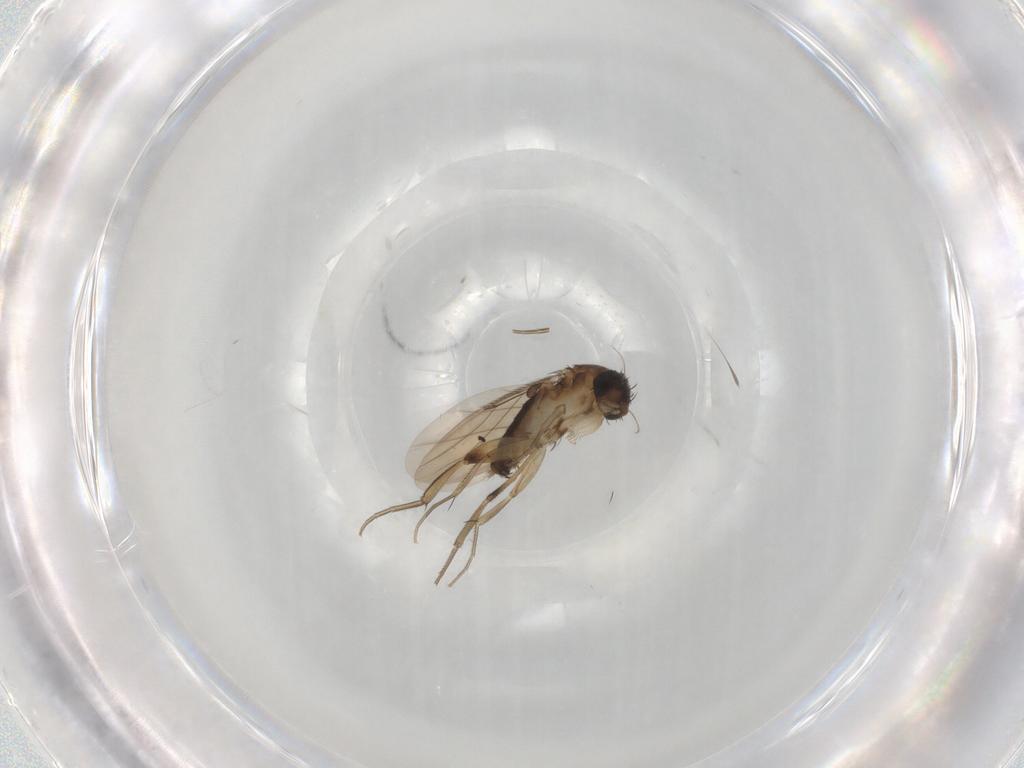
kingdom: Animalia
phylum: Arthropoda
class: Insecta
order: Diptera
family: Phoridae
